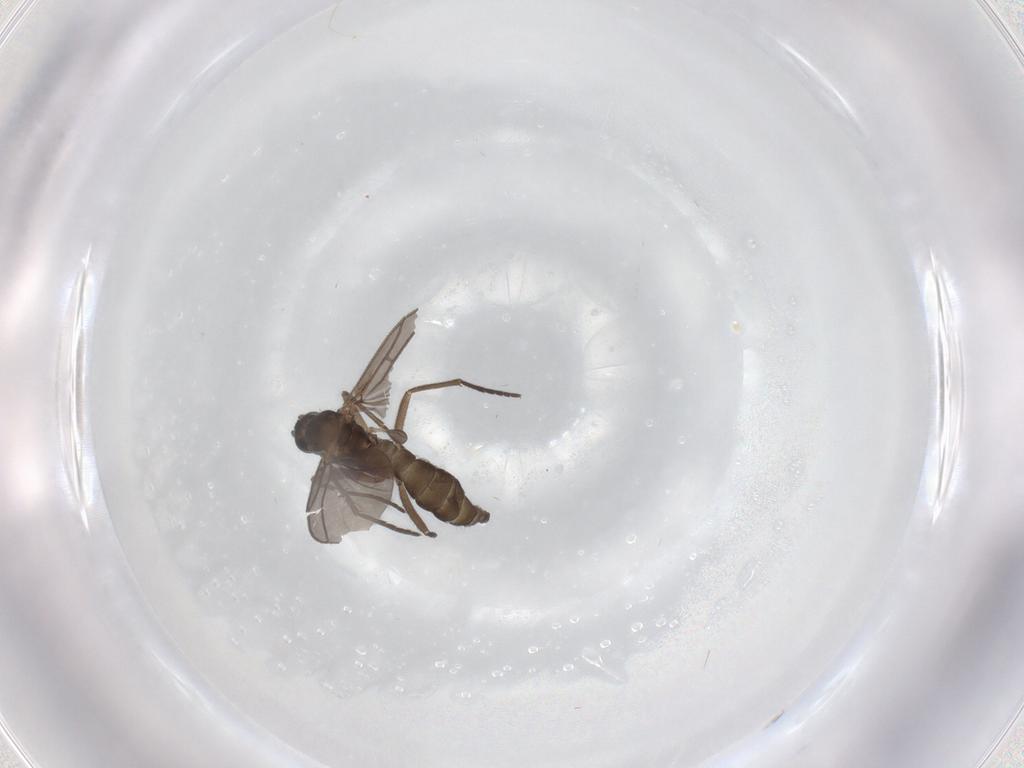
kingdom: Animalia
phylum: Arthropoda
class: Insecta
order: Diptera
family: Sciaridae
